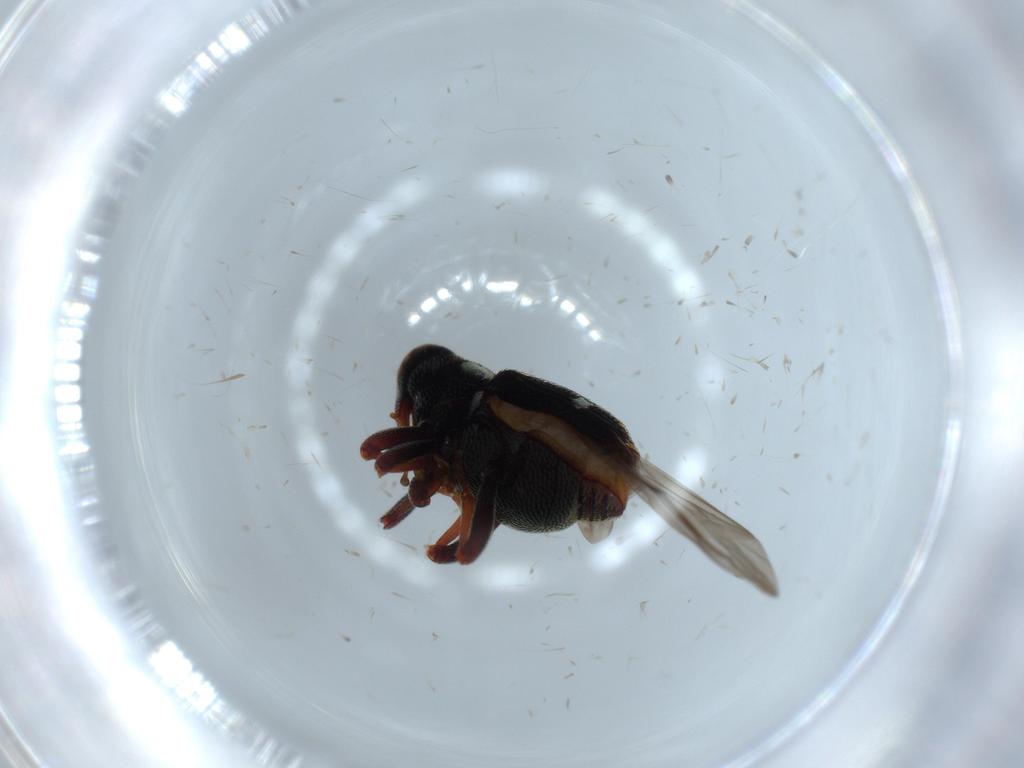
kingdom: Animalia
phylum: Arthropoda
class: Insecta
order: Coleoptera
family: Curculionidae
